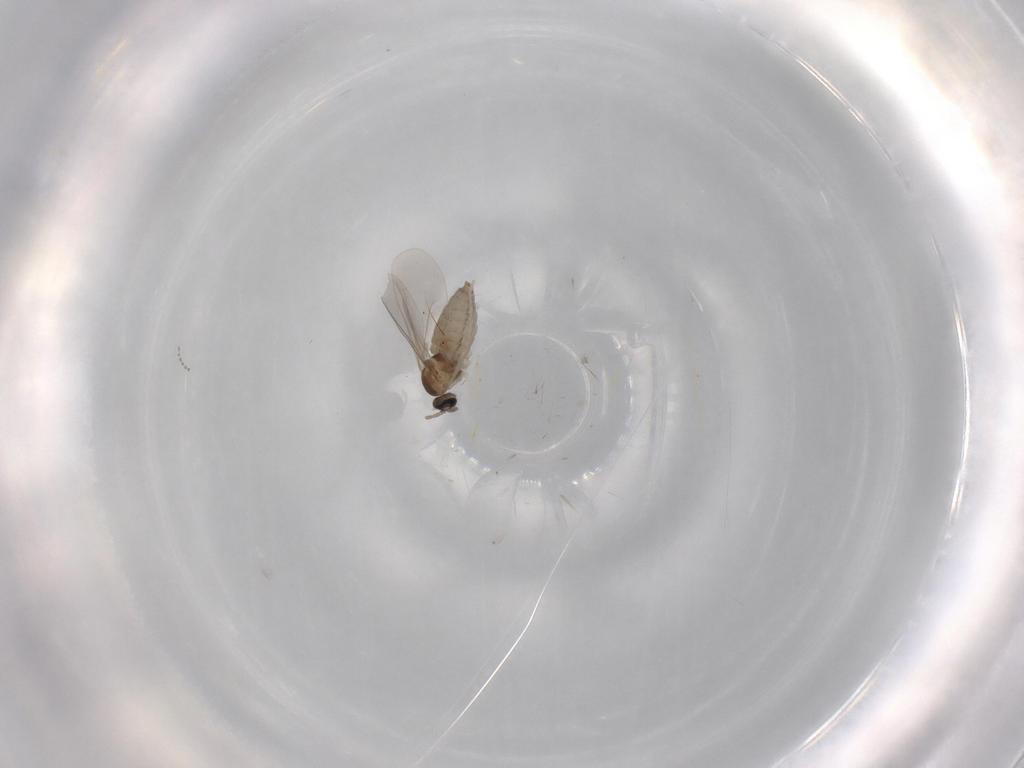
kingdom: Animalia
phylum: Arthropoda
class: Insecta
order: Diptera
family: Cecidomyiidae
